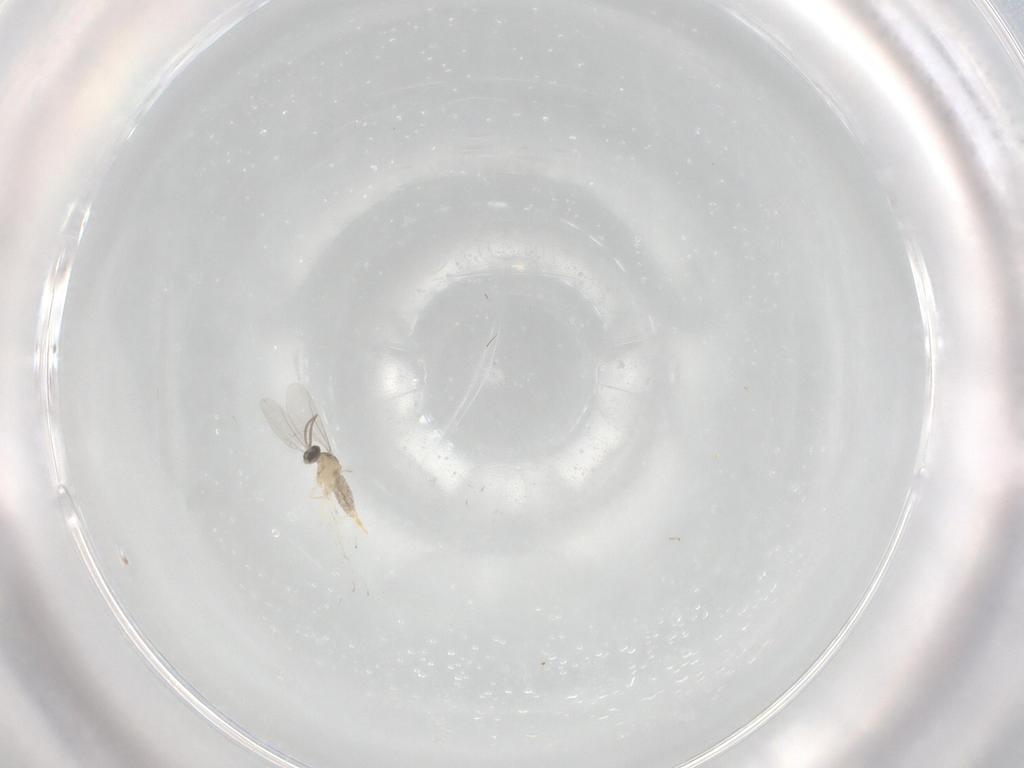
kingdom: Animalia
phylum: Arthropoda
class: Insecta
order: Diptera
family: Cecidomyiidae
